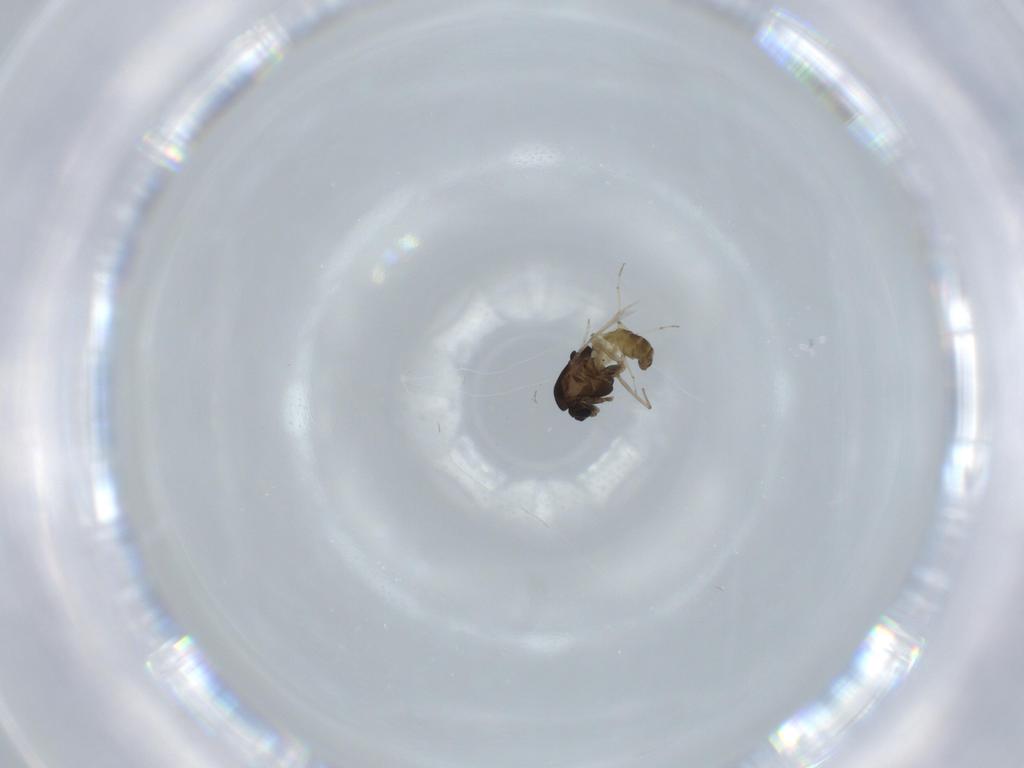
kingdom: Animalia
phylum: Arthropoda
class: Insecta
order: Diptera
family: Chironomidae
